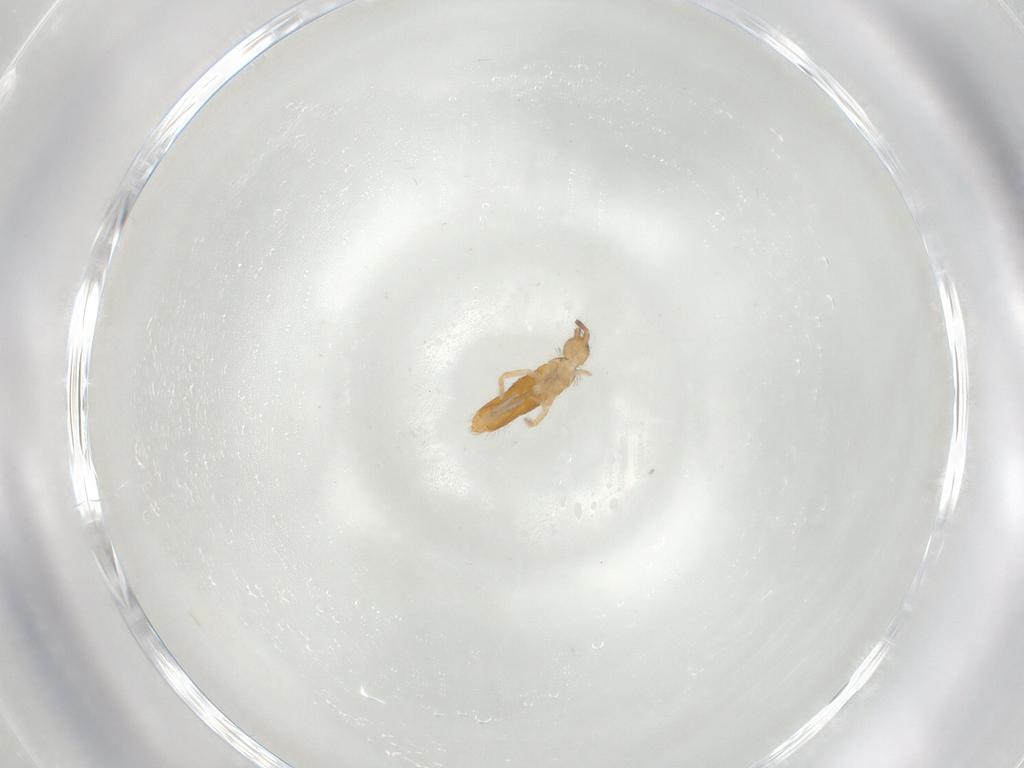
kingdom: Animalia
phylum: Arthropoda
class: Collembola
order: Entomobryomorpha
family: Entomobryidae
